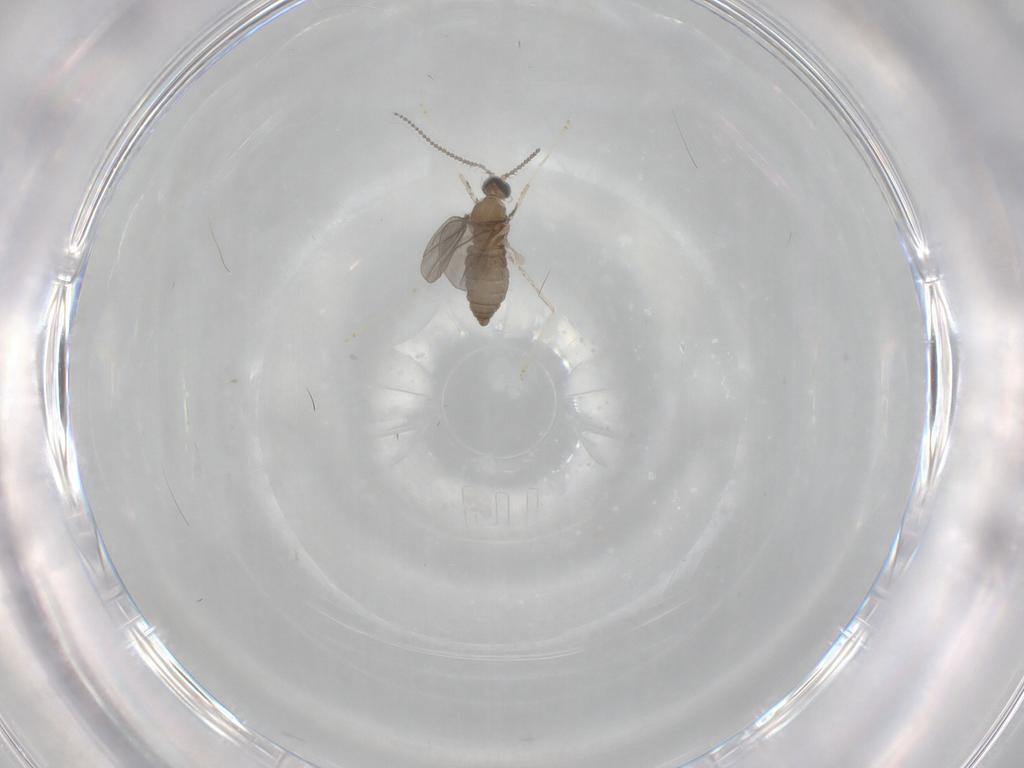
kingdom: Animalia
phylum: Arthropoda
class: Insecta
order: Diptera
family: Cecidomyiidae
